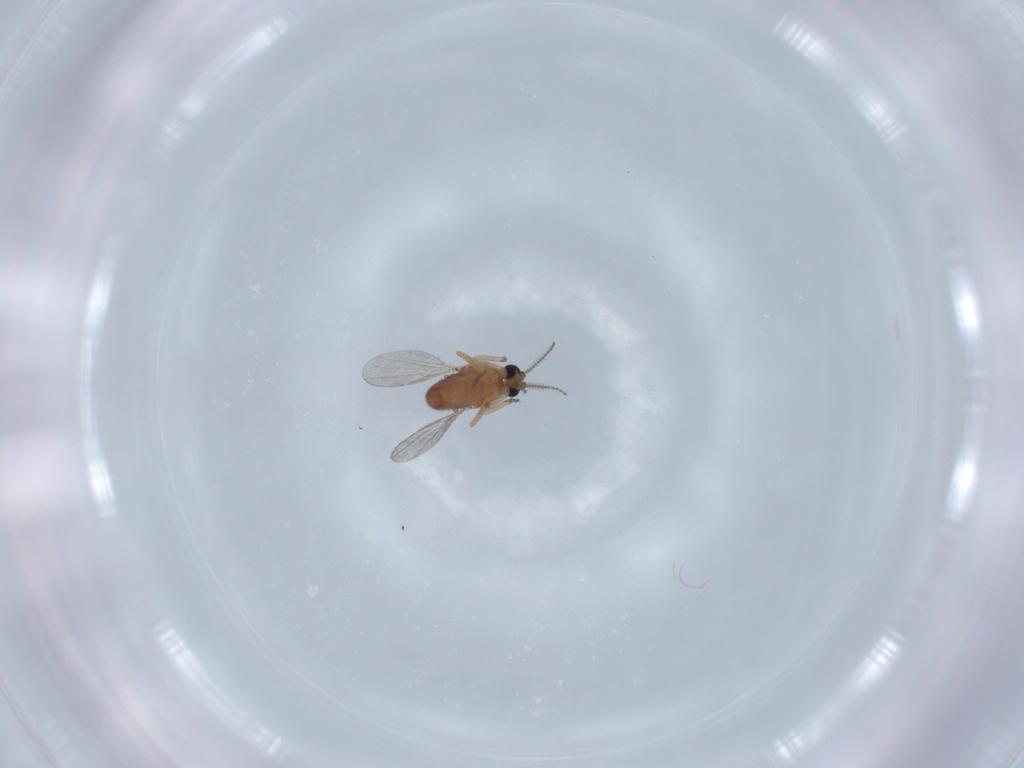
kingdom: Animalia
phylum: Arthropoda
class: Insecta
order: Diptera
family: Ceratopogonidae
